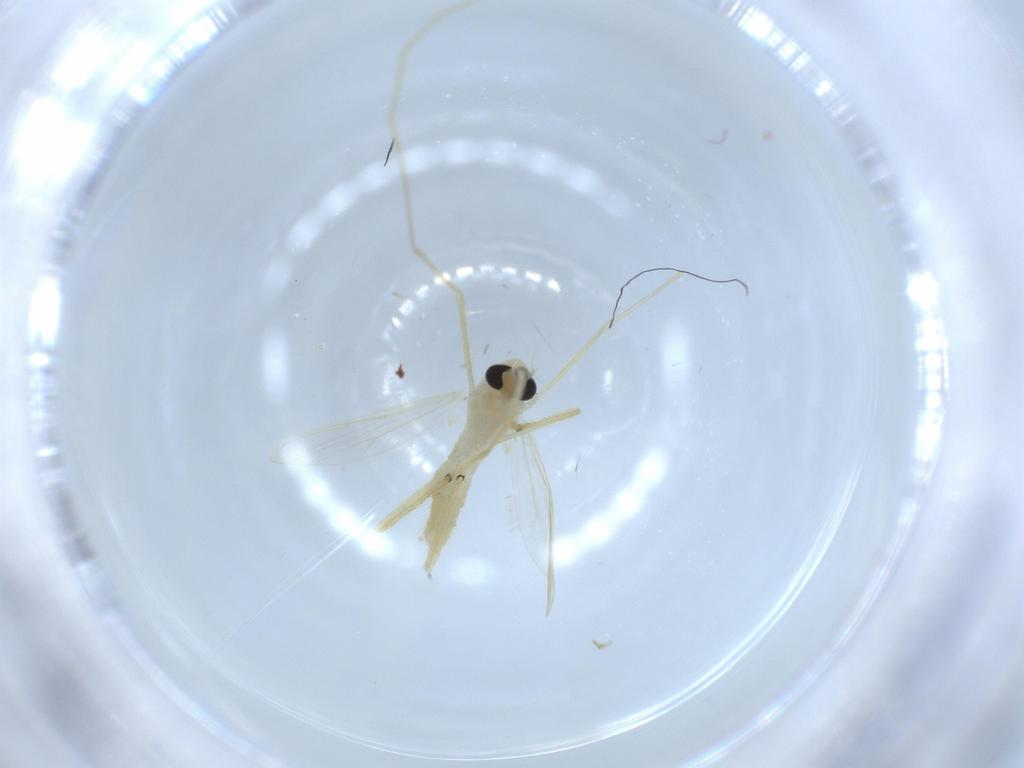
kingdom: Animalia
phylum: Arthropoda
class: Insecta
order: Diptera
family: Chironomidae
